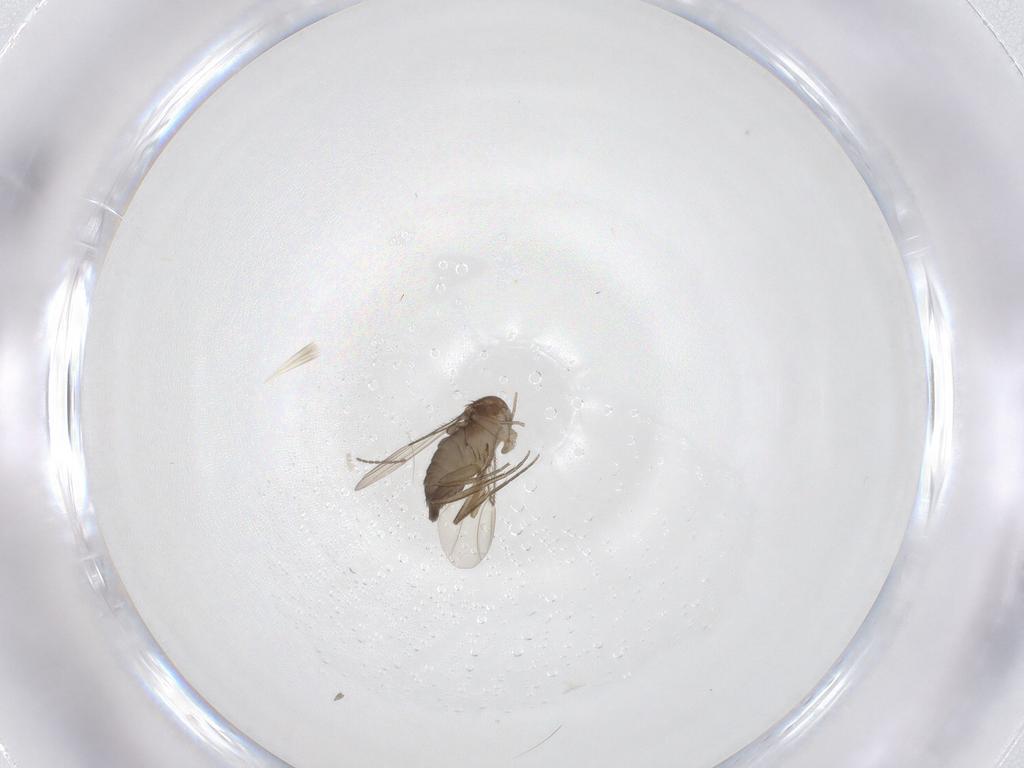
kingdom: Animalia
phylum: Arthropoda
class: Insecta
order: Diptera
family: Phoridae
